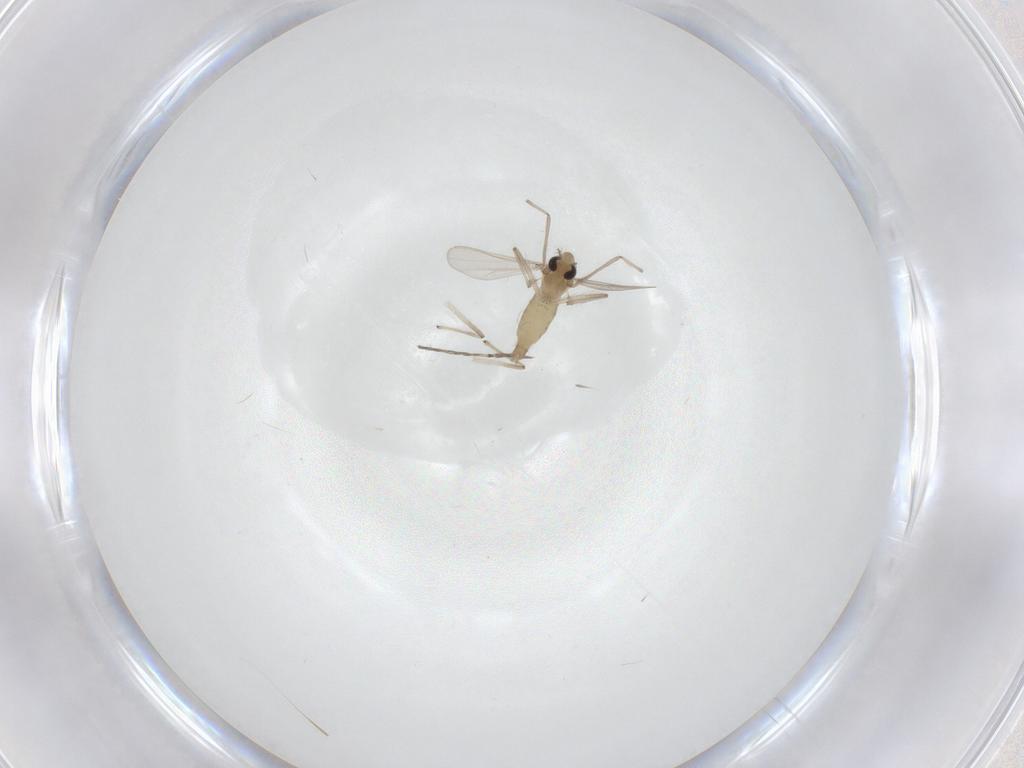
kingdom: Animalia
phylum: Arthropoda
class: Insecta
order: Diptera
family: Chironomidae
